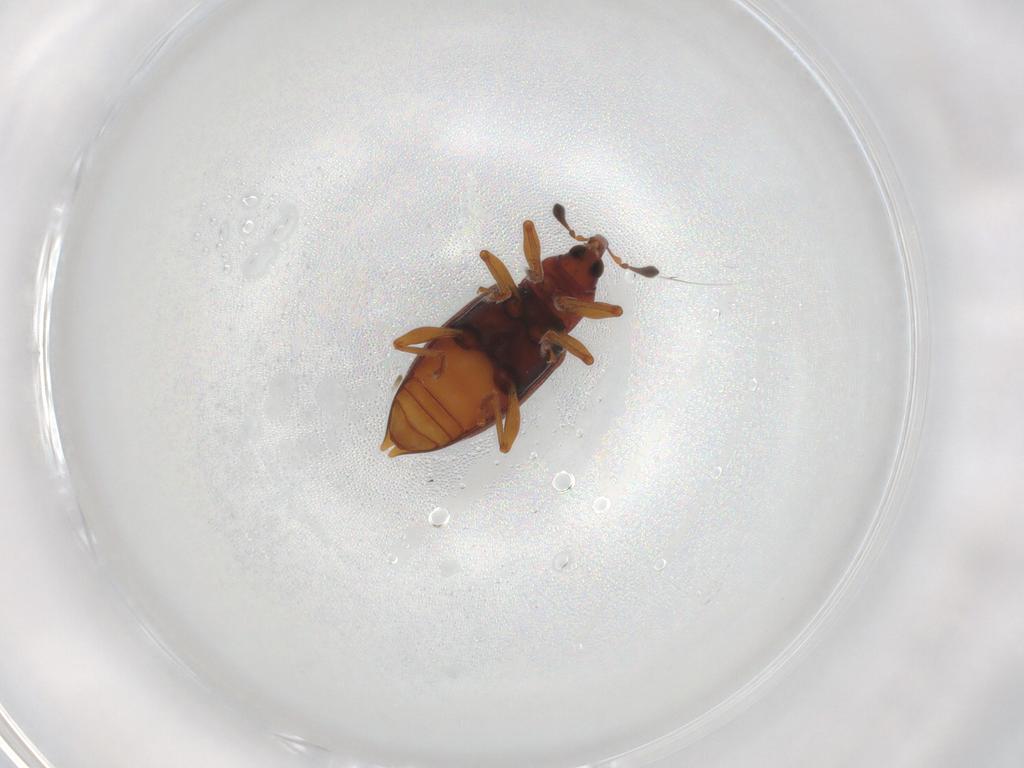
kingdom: Animalia
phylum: Arthropoda
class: Insecta
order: Coleoptera
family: Curculionidae
